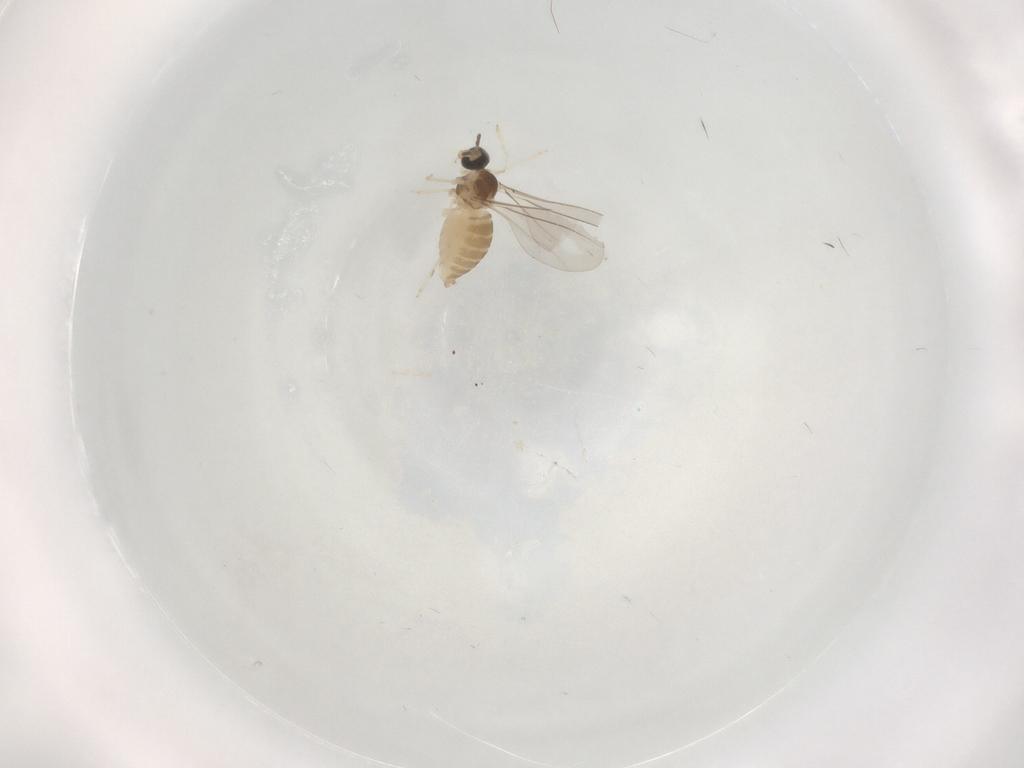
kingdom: Animalia
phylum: Arthropoda
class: Insecta
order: Diptera
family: Cecidomyiidae
